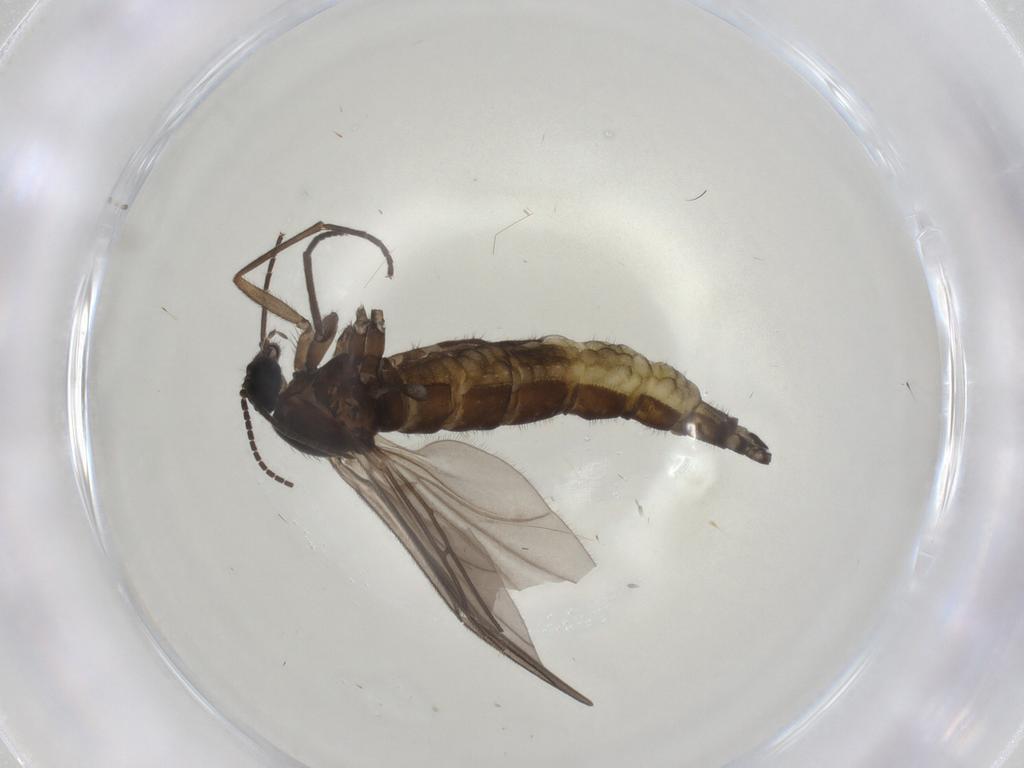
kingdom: Animalia
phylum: Arthropoda
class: Insecta
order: Diptera
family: Sciaridae
